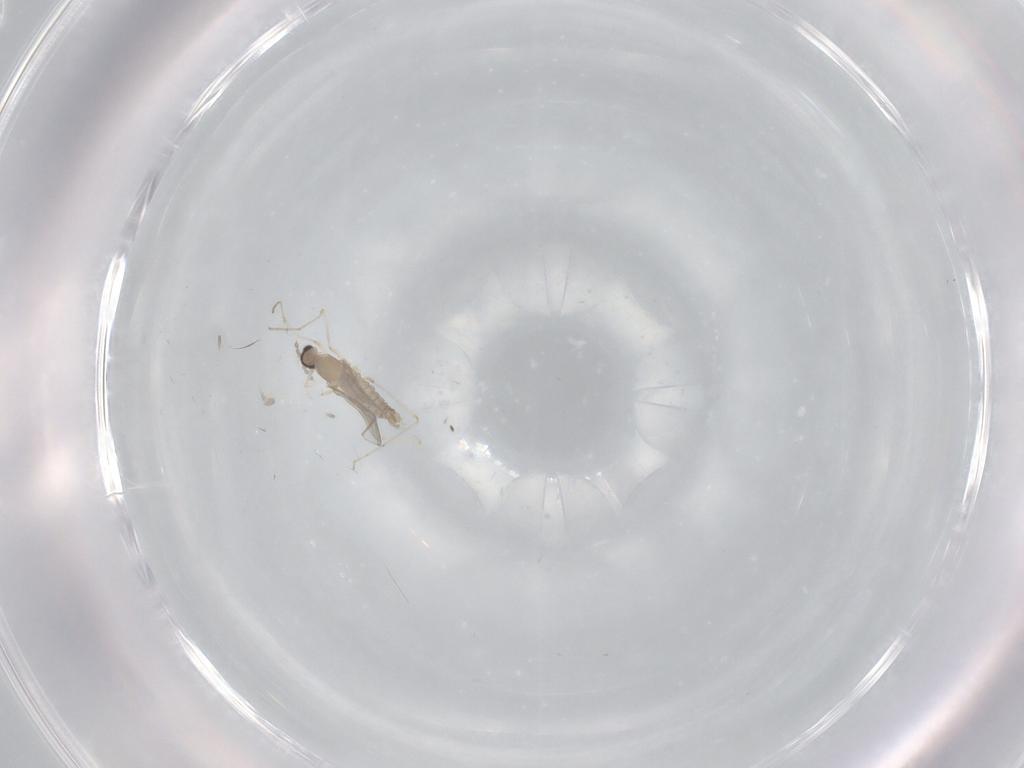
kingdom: Animalia
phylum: Arthropoda
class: Insecta
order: Diptera
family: Cecidomyiidae
